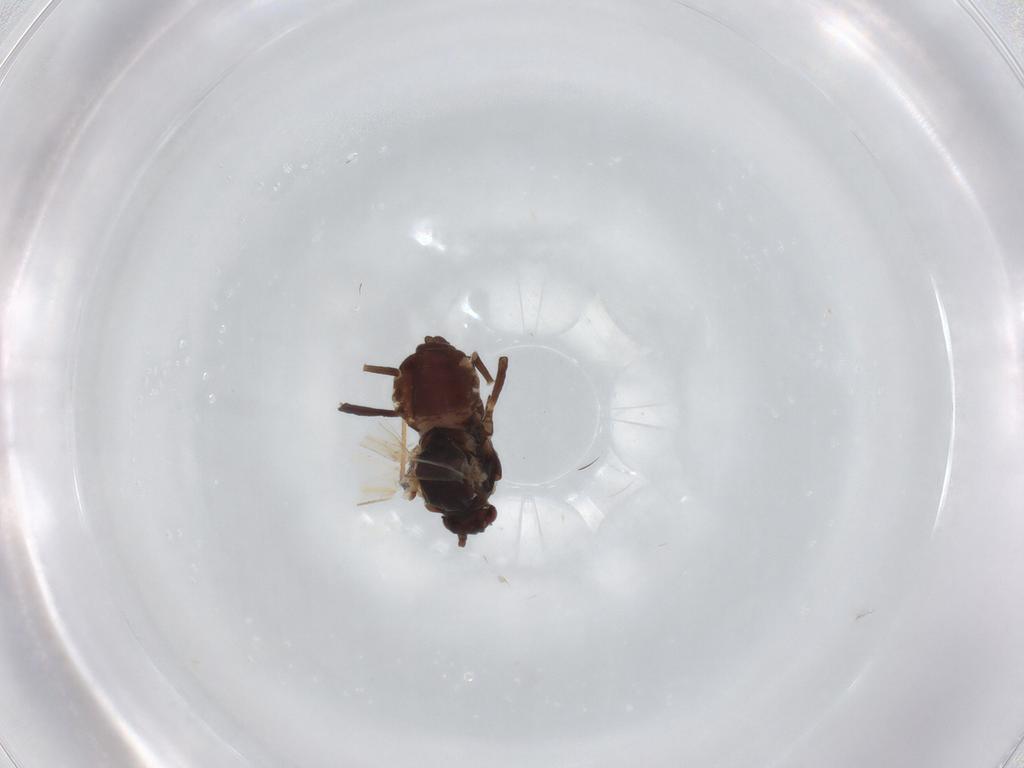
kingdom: Animalia
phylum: Arthropoda
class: Insecta
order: Hemiptera
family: Aphididae
